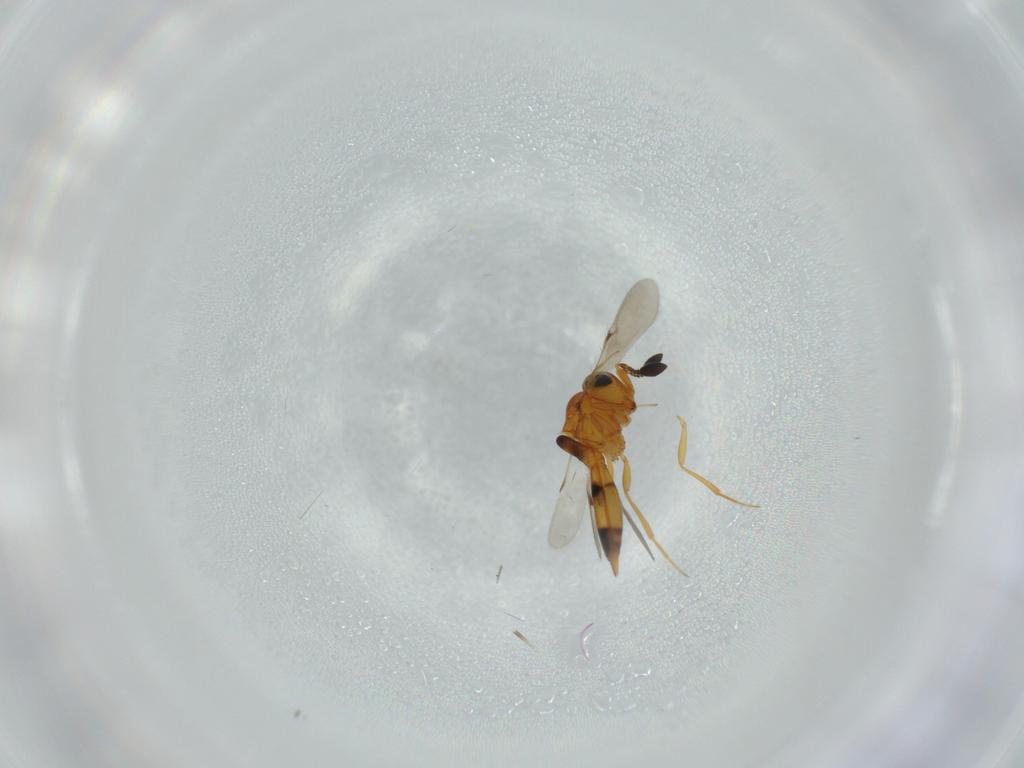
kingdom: Animalia
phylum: Arthropoda
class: Insecta
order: Hymenoptera
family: Scelionidae
